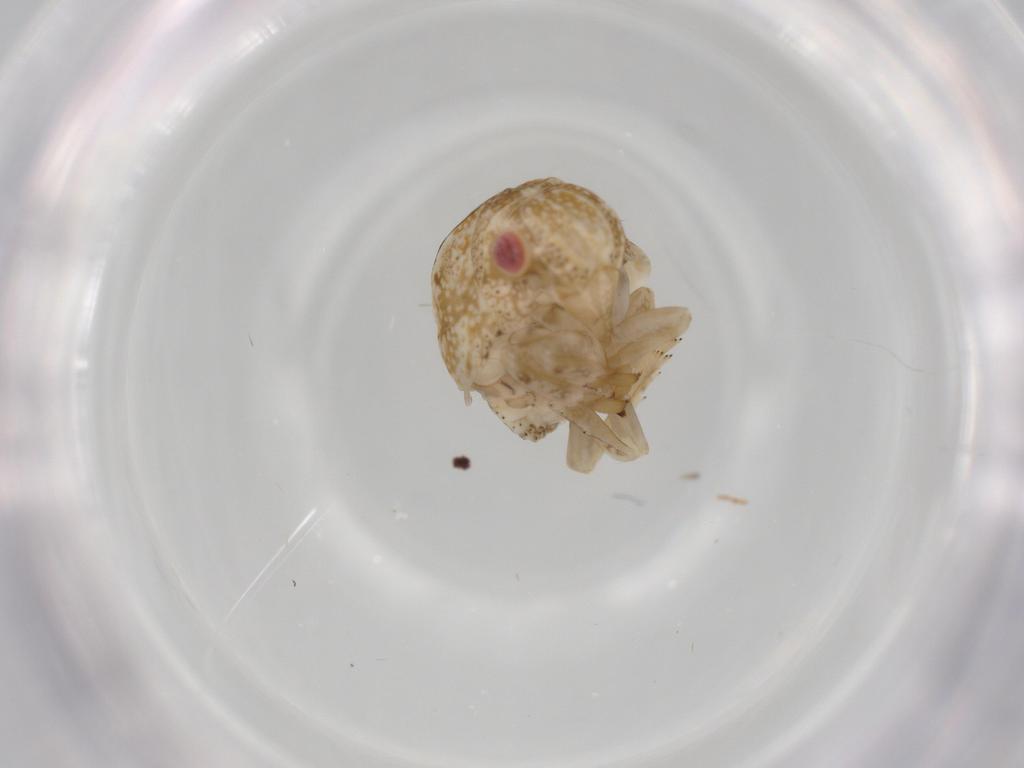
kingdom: Animalia
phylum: Arthropoda
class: Insecta
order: Hemiptera
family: Acanaloniidae
